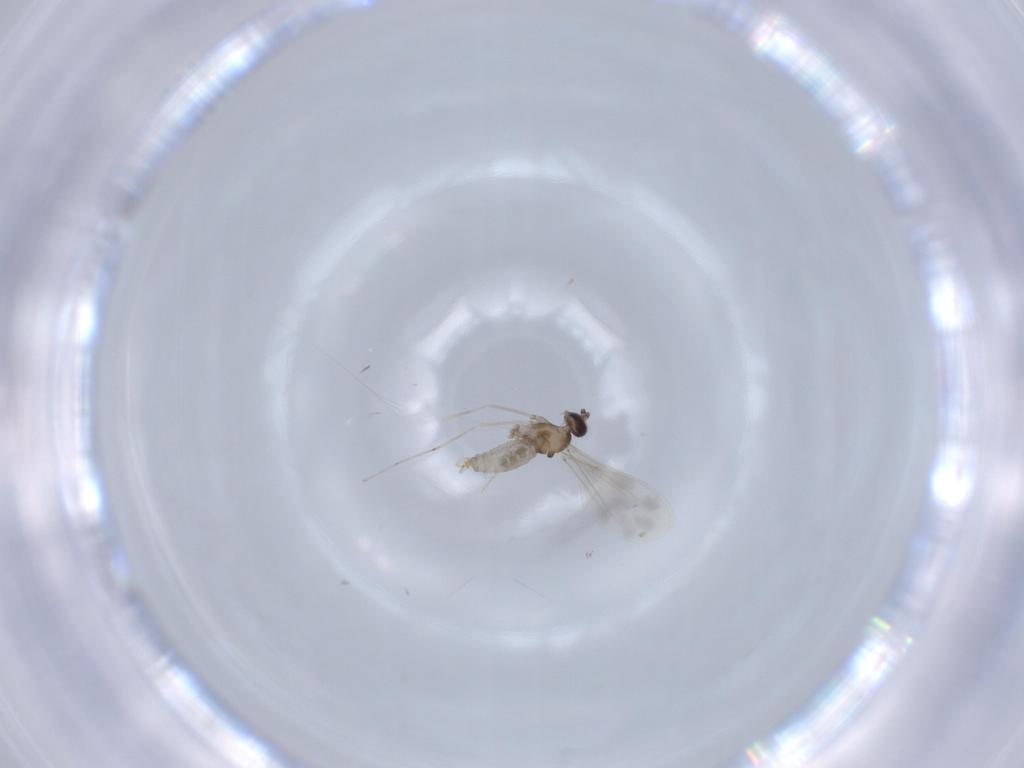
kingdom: Animalia
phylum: Arthropoda
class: Insecta
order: Diptera
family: Cecidomyiidae
